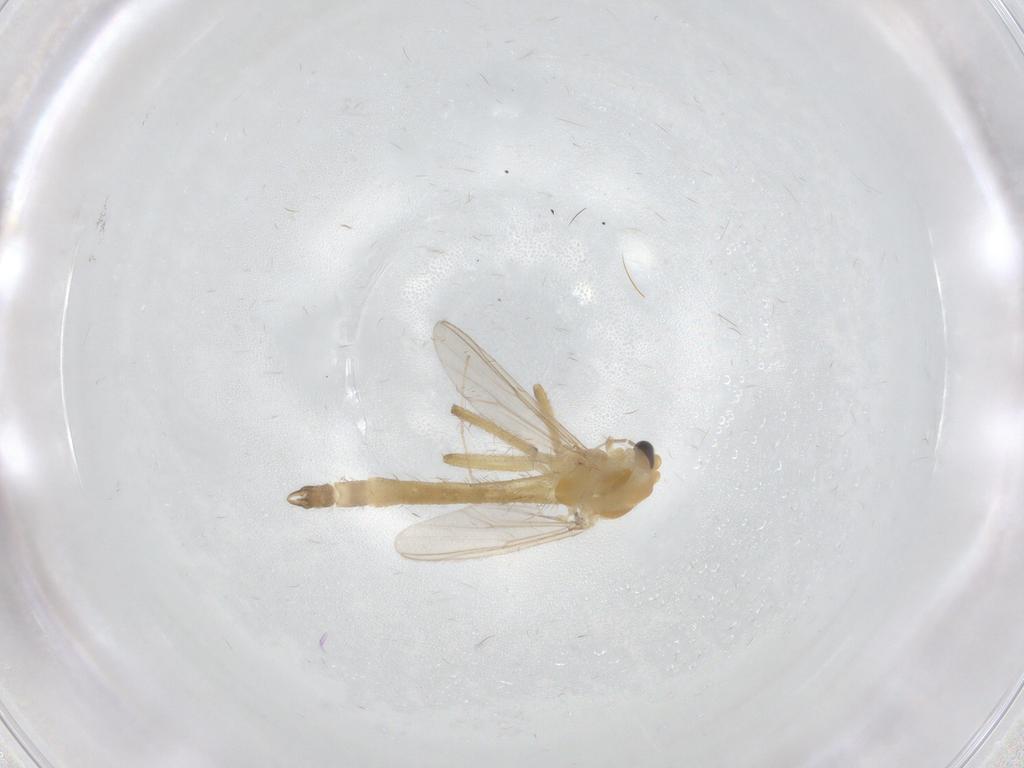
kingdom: Animalia
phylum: Arthropoda
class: Insecta
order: Diptera
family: Chironomidae
